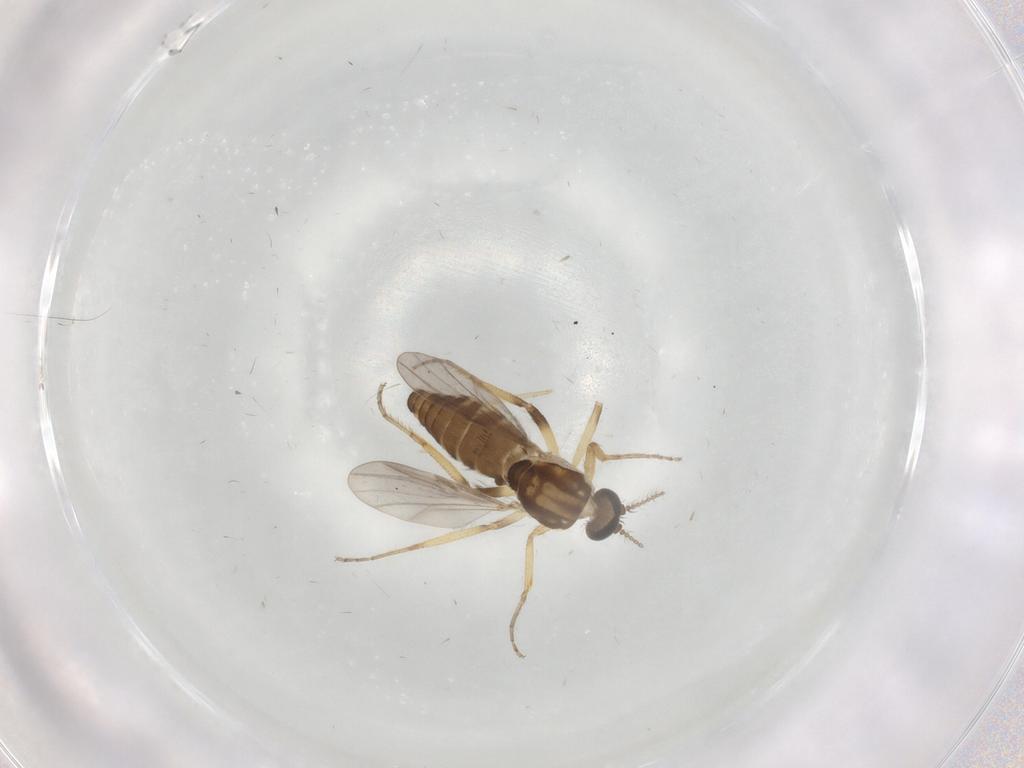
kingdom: Animalia
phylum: Arthropoda
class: Insecta
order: Diptera
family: Sciaridae
